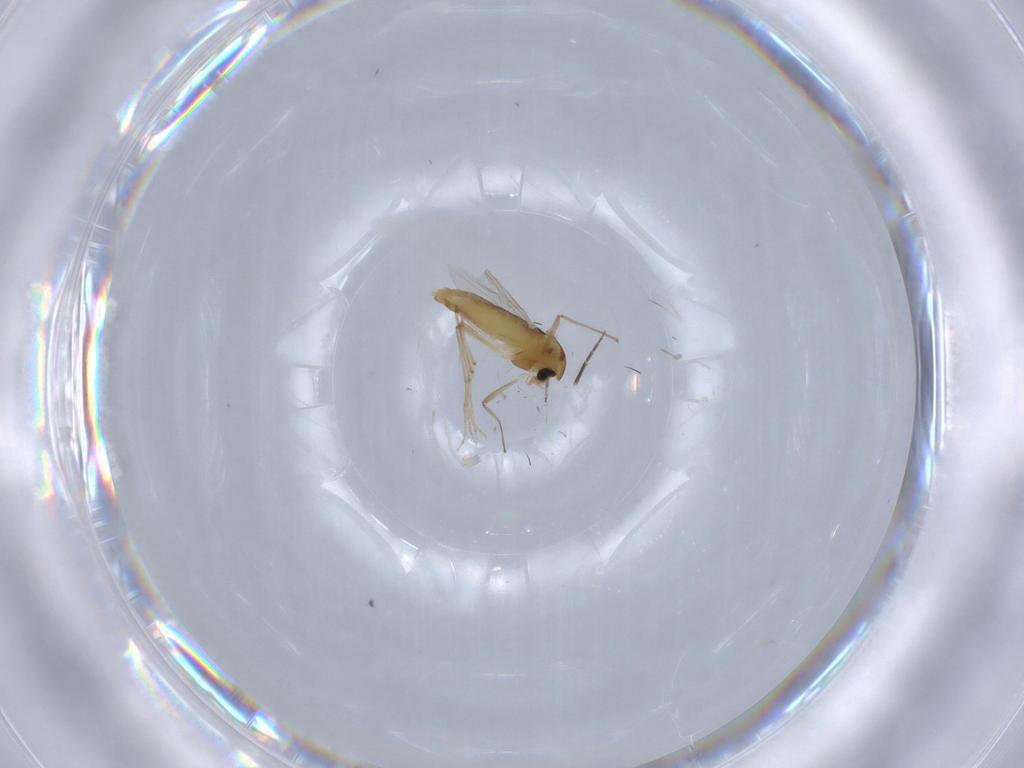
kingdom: Animalia
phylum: Arthropoda
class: Insecta
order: Diptera
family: Chironomidae
